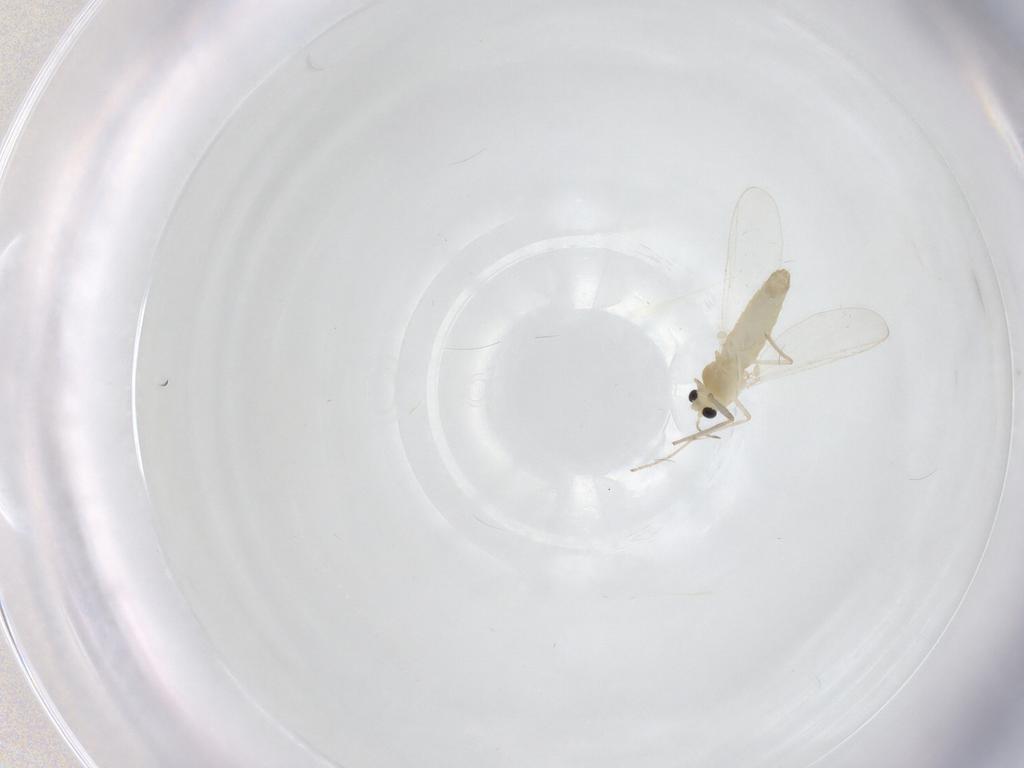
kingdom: Animalia
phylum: Arthropoda
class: Insecta
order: Diptera
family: Chironomidae
